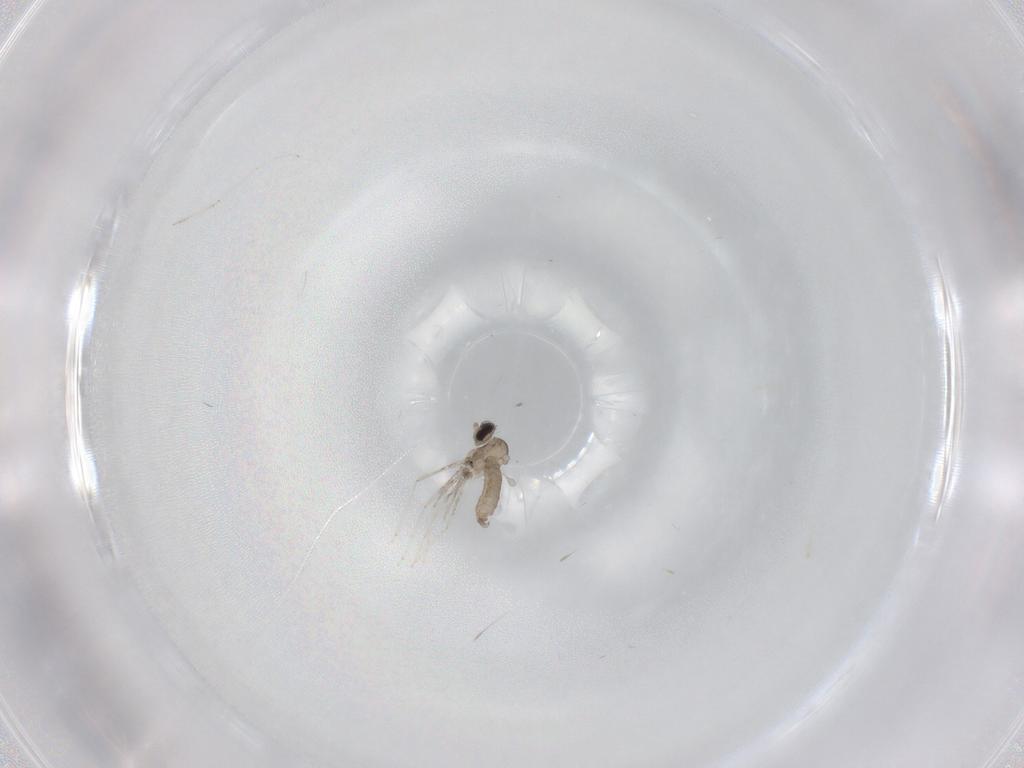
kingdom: Animalia
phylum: Arthropoda
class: Insecta
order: Diptera
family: Cecidomyiidae
